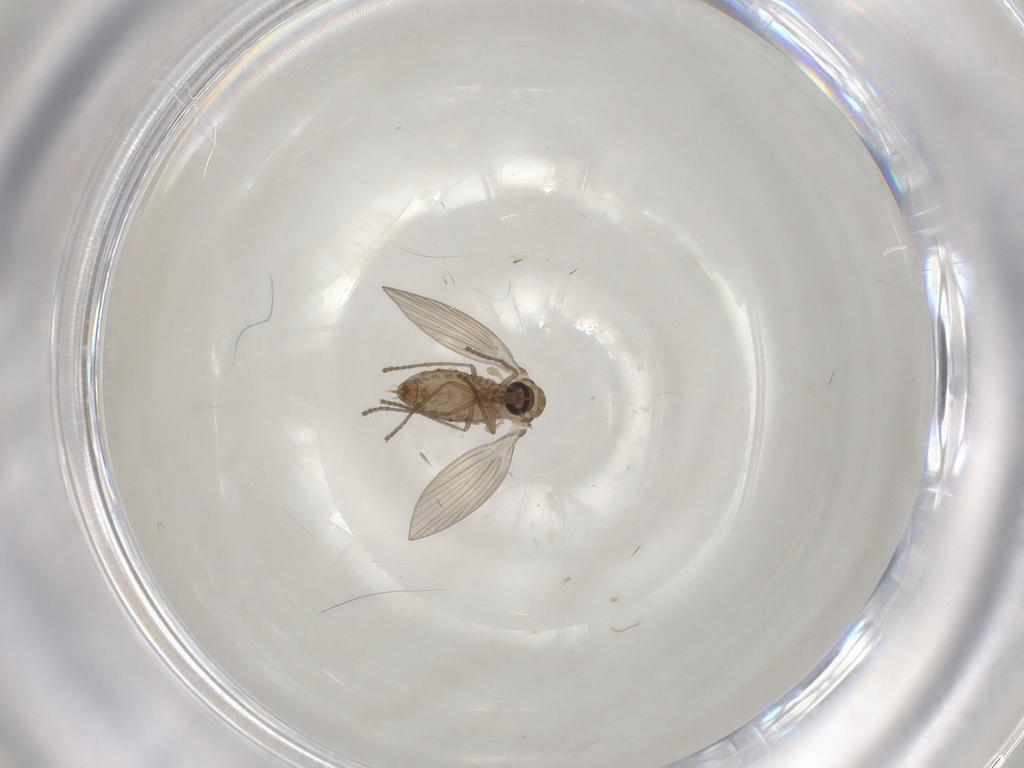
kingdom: Animalia
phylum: Arthropoda
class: Insecta
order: Diptera
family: Psychodidae
